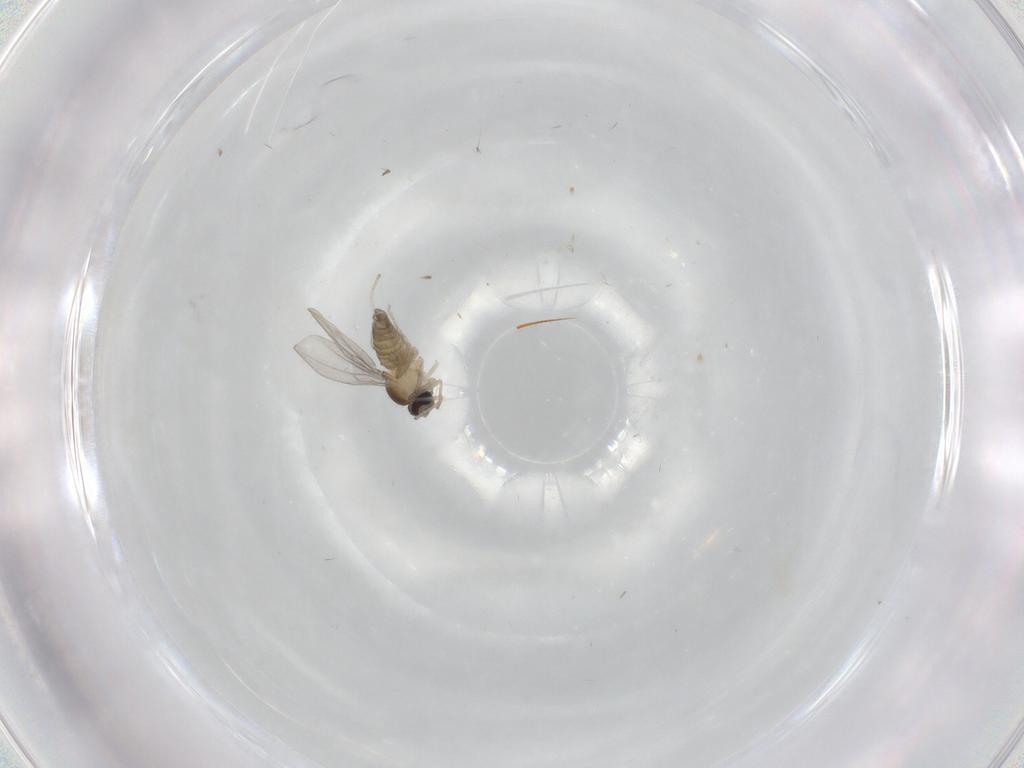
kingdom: Animalia
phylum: Arthropoda
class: Insecta
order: Diptera
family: Cecidomyiidae
